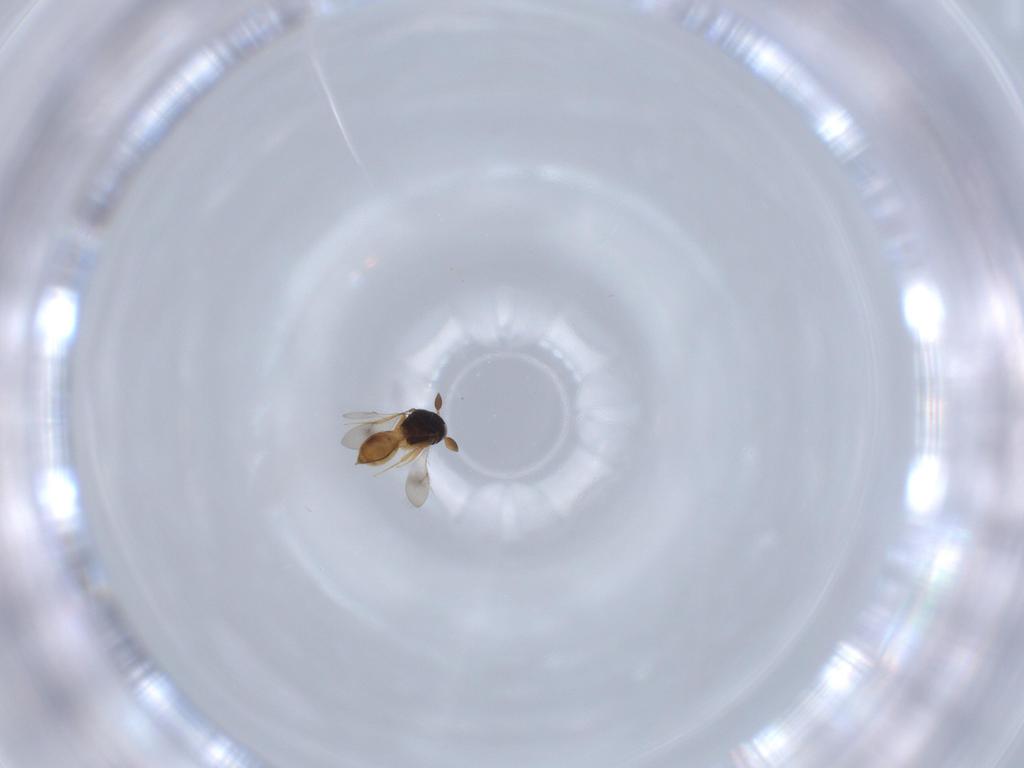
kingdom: Animalia
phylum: Arthropoda
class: Insecta
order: Hymenoptera
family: Scelionidae
